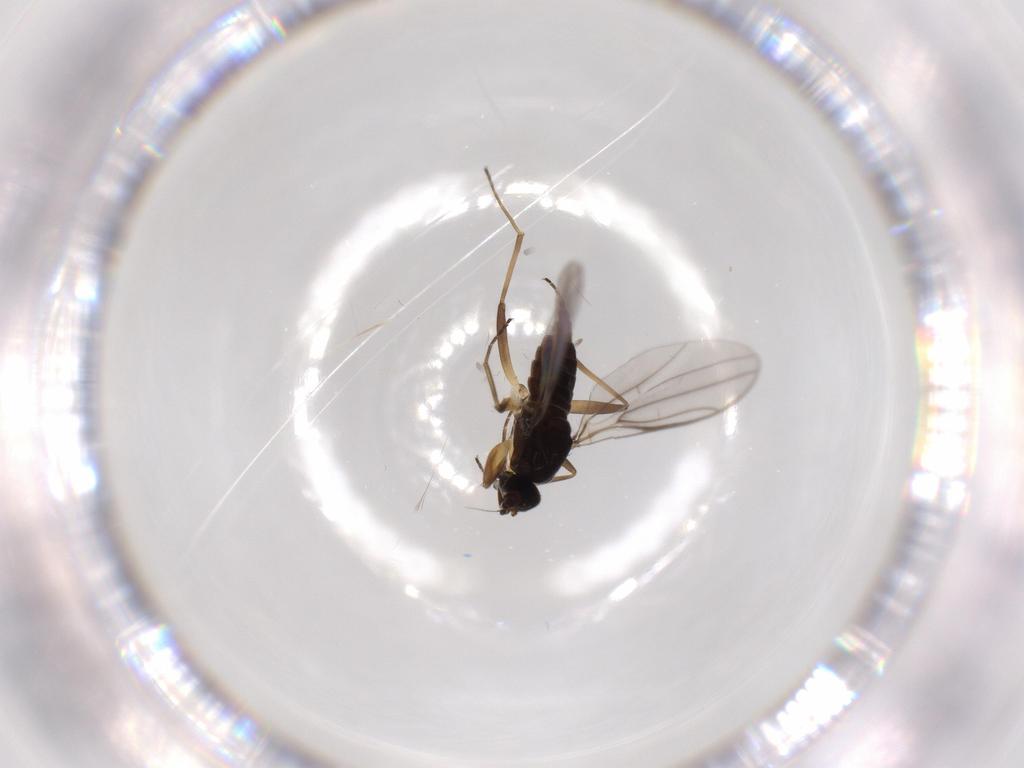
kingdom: Animalia
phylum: Arthropoda
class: Insecta
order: Diptera
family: Hybotidae
